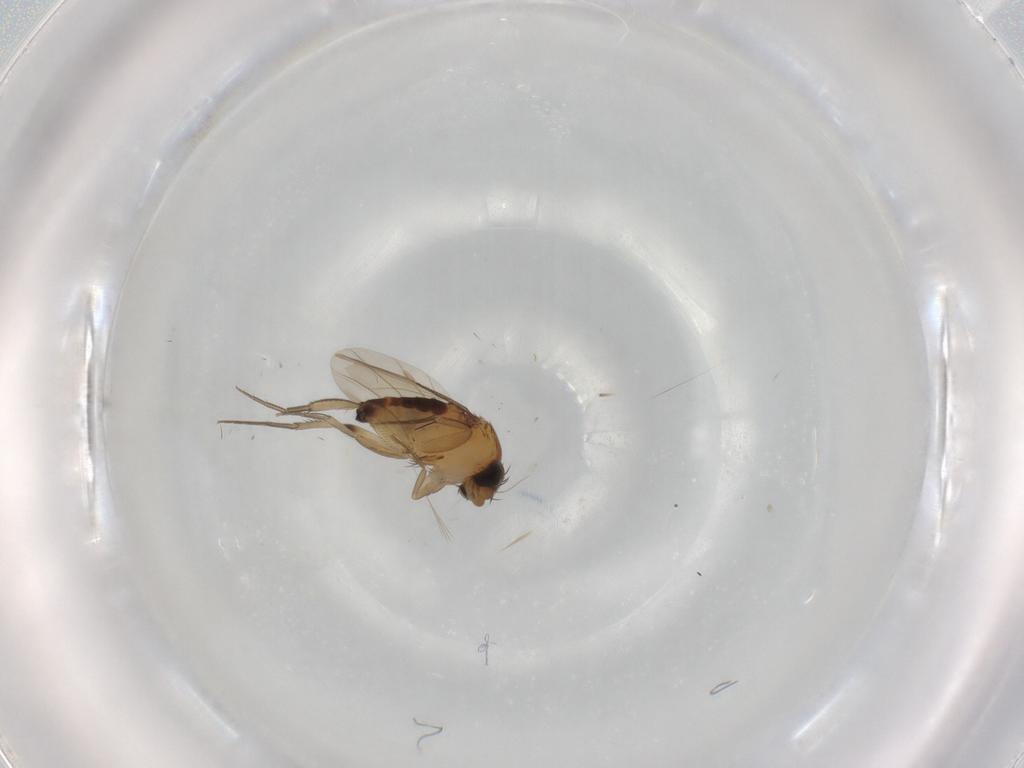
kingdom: Animalia
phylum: Arthropoda
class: Insecta
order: Diptera
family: Phoridae
